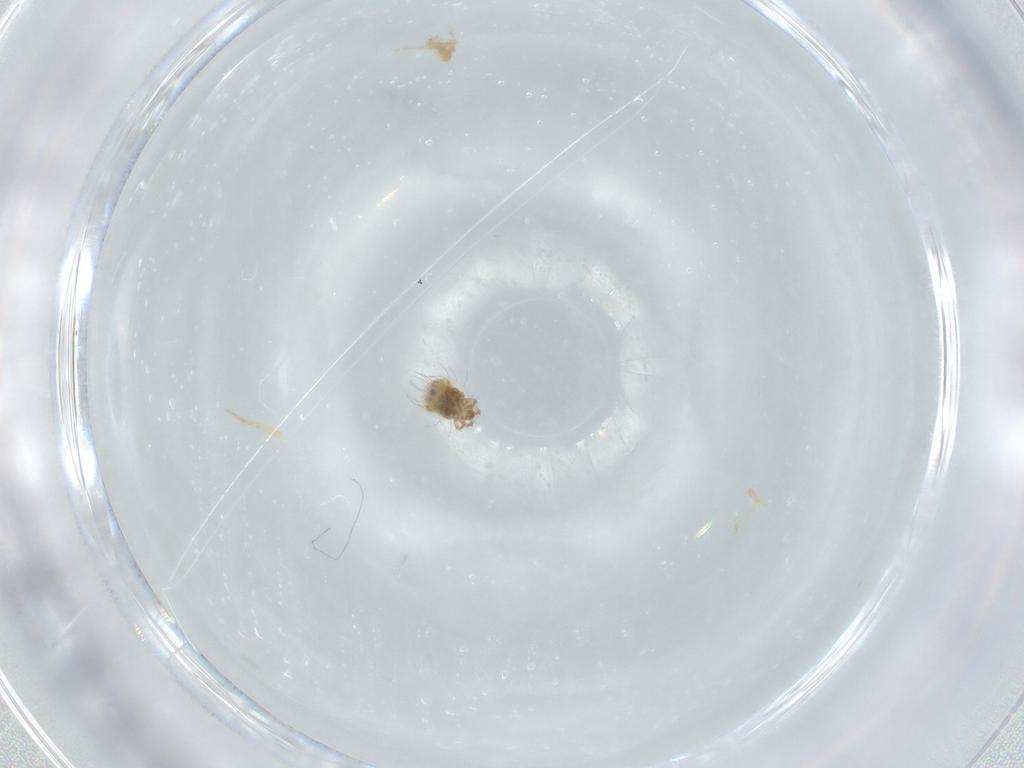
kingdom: Animalia
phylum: Arthropoda
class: Arachnida
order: Sarcoptiformes
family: Mochlozetidae
